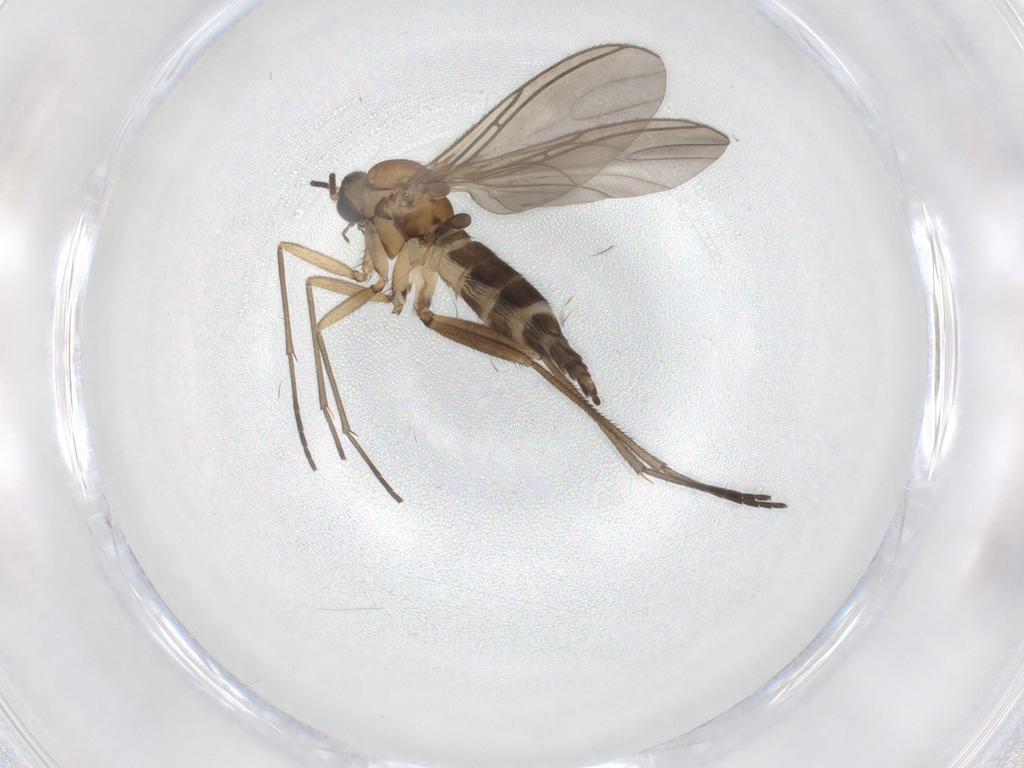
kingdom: Animalia
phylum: Arthropoda
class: Insecta
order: Diptera
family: Sciaridae
